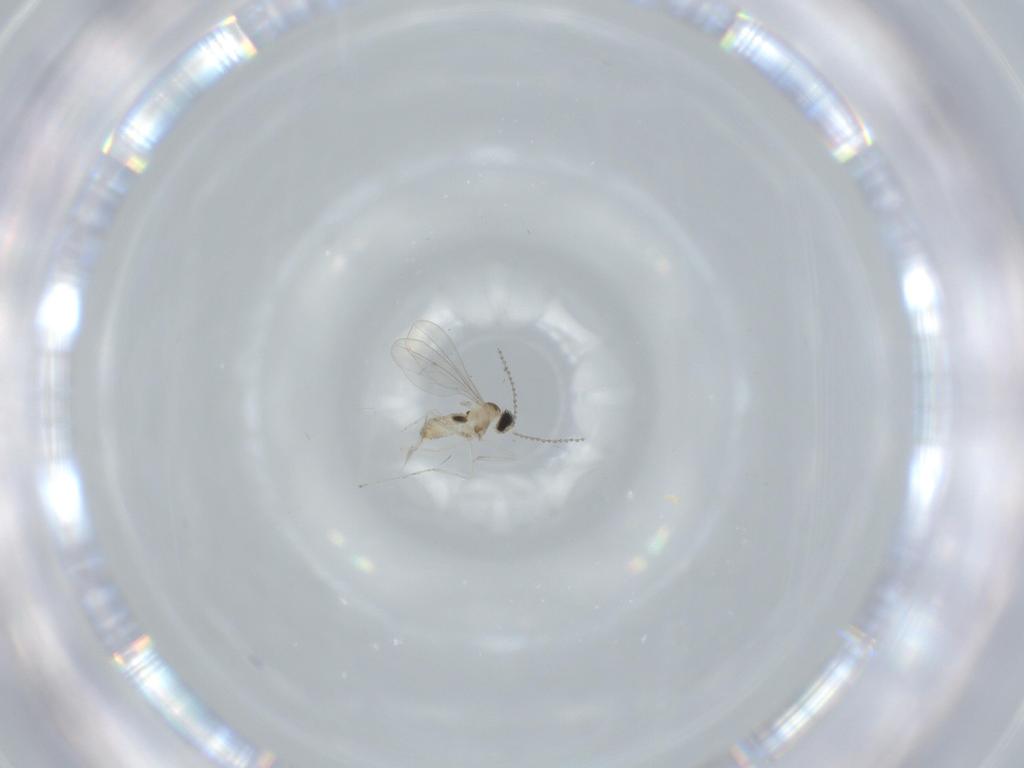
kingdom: Animalia
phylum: Arthropoda
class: Insecta
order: Diptera
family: Cecidomyiidae
